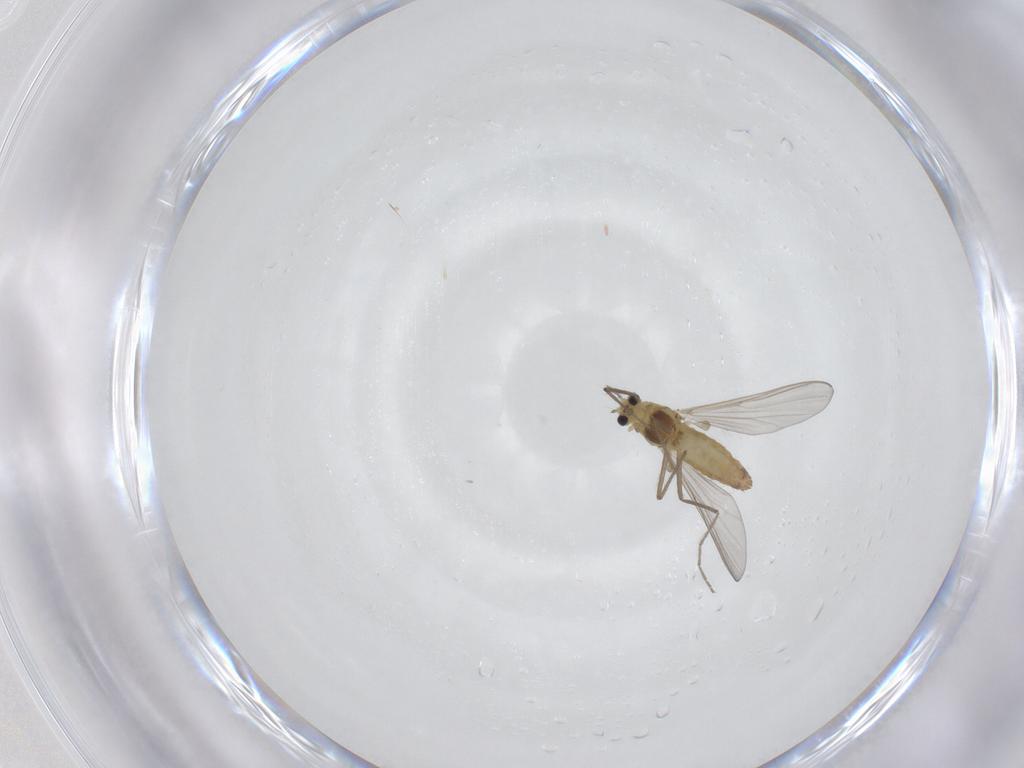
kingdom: Animalia
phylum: Arthropoda
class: Insecta
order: Diptera
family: Chironomidae
